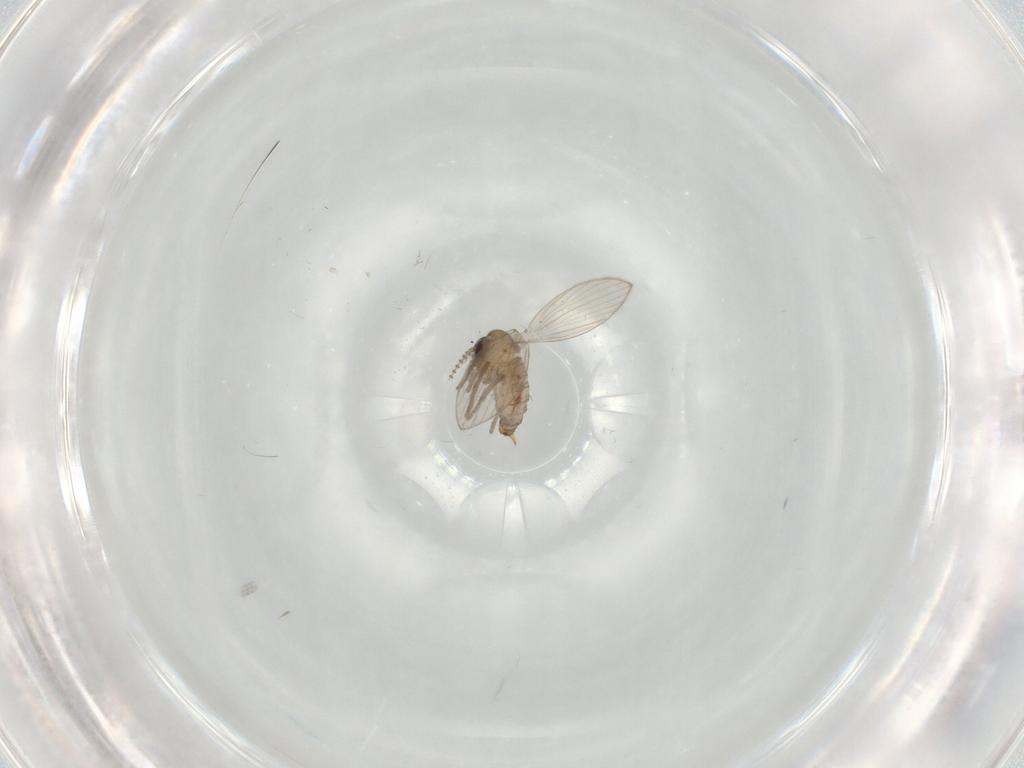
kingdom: Animalia
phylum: Arthropoda
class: Insecta
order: Diptera
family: Psychodidae
